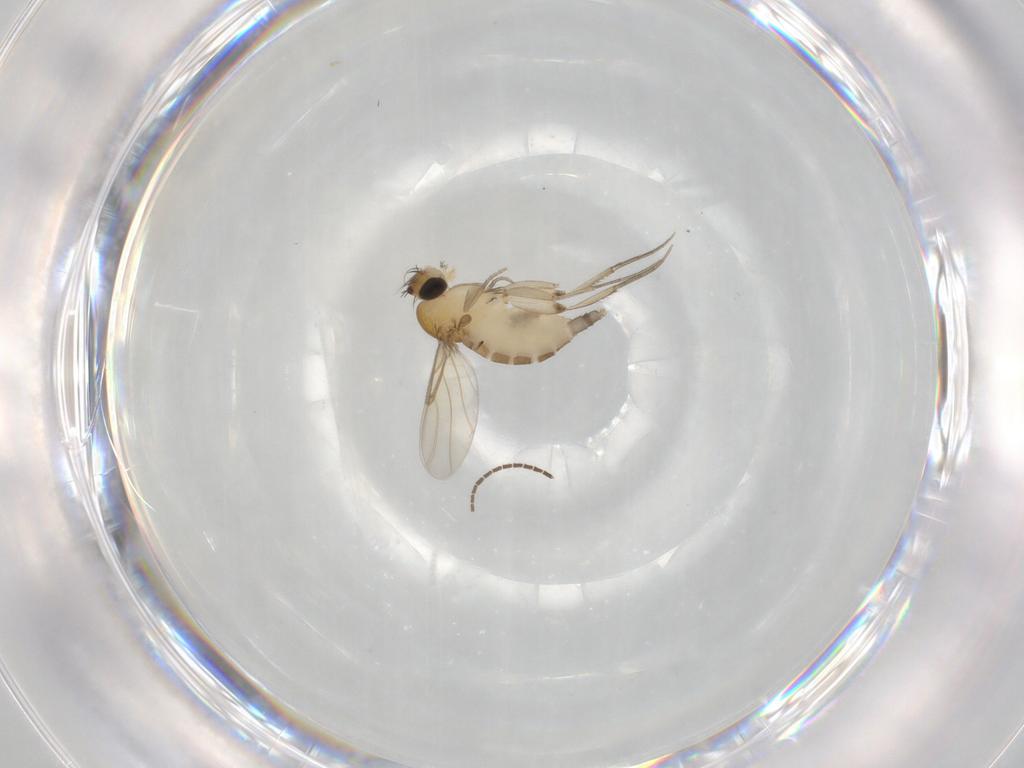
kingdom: Animalia
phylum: Arthropoda
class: Insecta
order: Diptera
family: Phoridae
